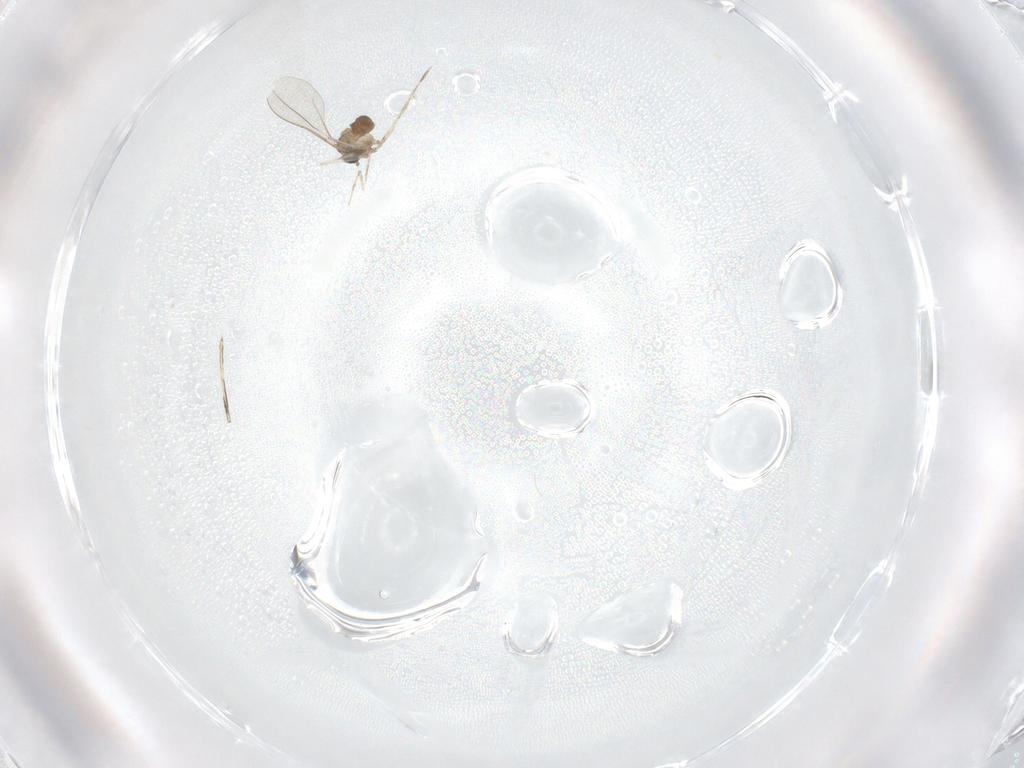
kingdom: Animalia
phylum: Arthropoda
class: Insecta
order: Diptera
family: Cecidomyiidae
